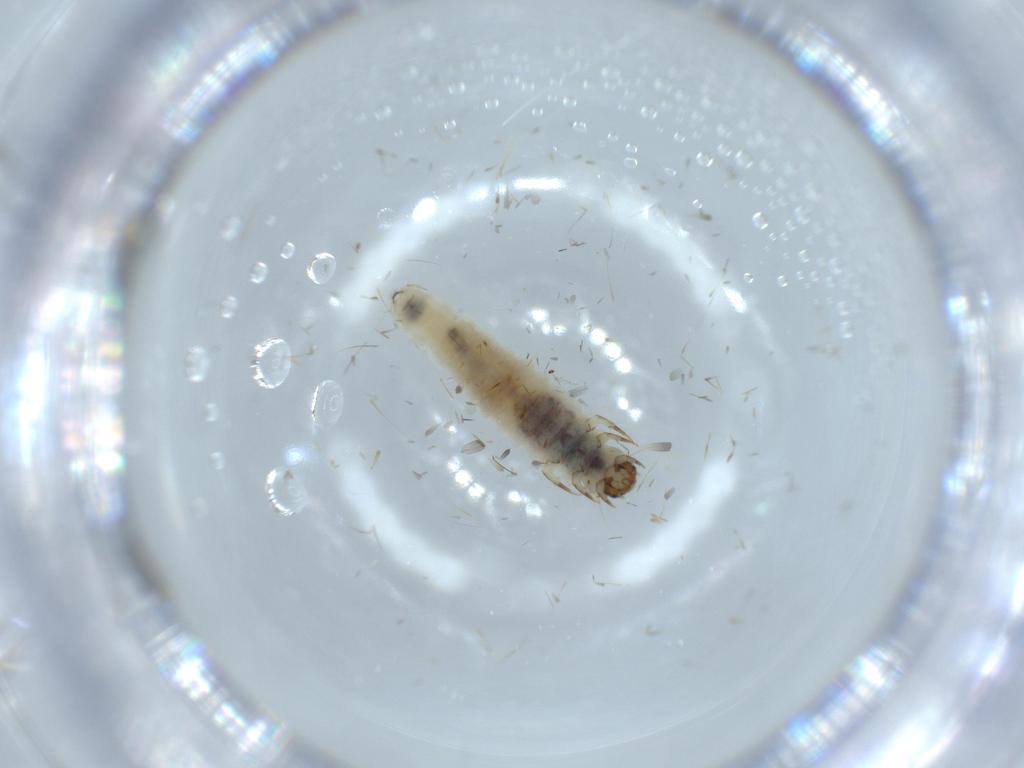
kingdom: Animalia
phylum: Arthropoda
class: Insecta
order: Lepidoptera
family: Tineidae
